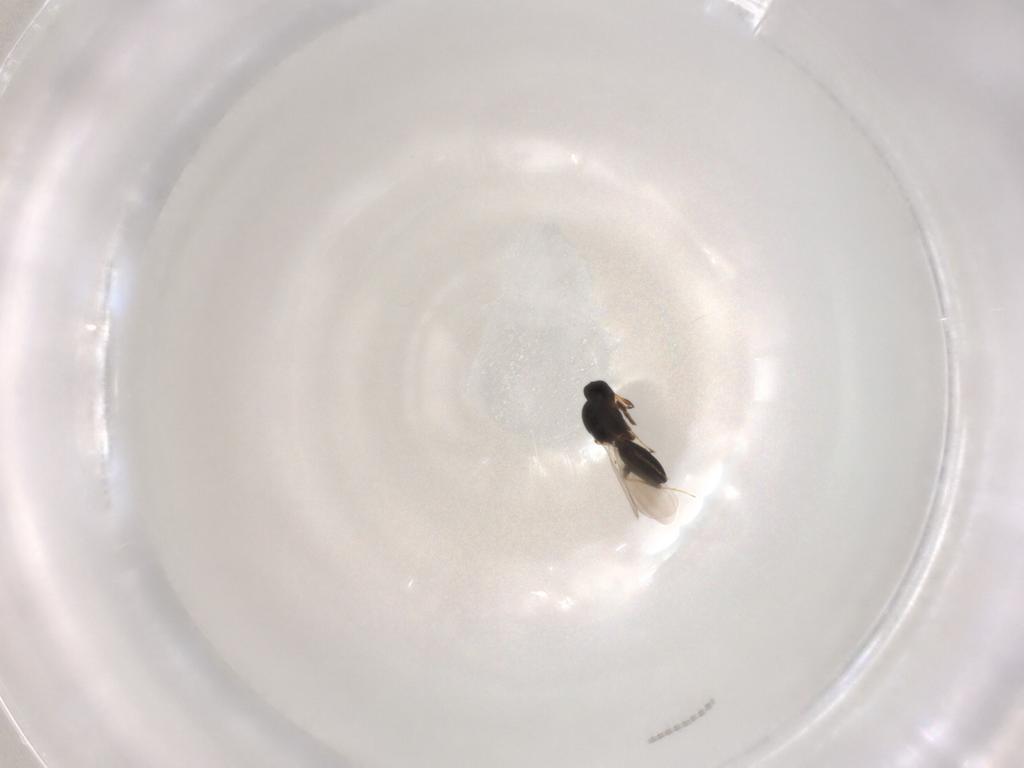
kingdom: Animalia
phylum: Arthropoda
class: Insecta
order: Hymenoptera
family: Platygastridae
